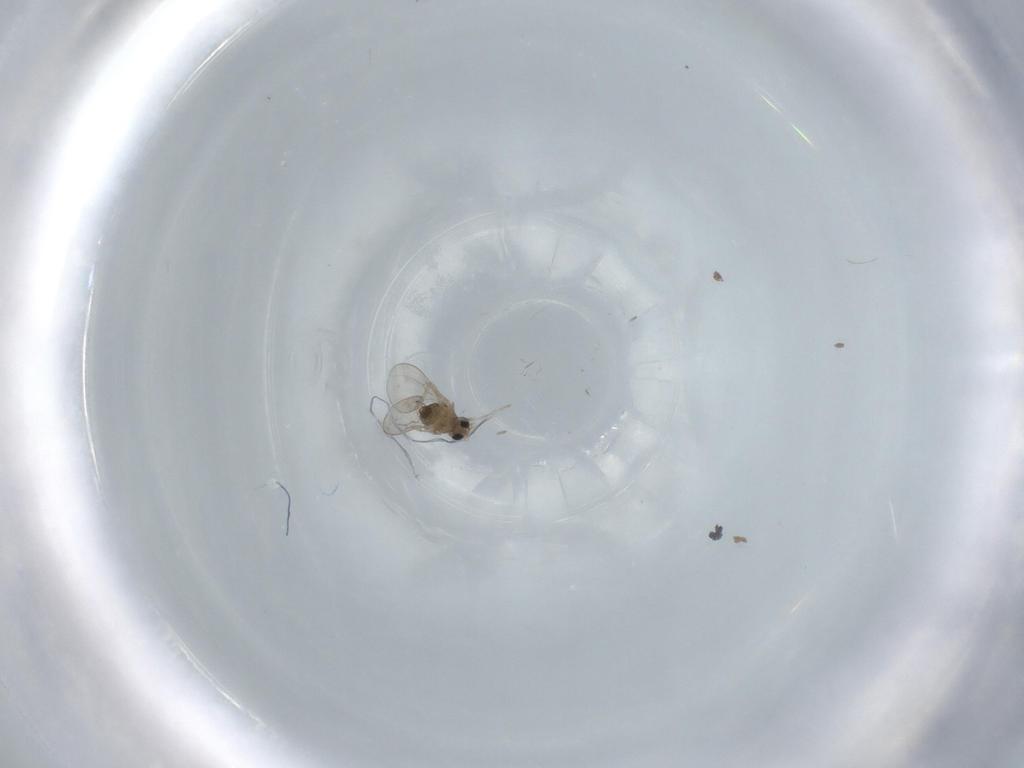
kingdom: Animalia
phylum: Arthropoda
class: Insecta
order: Diptera
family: Cecidomyiidae
